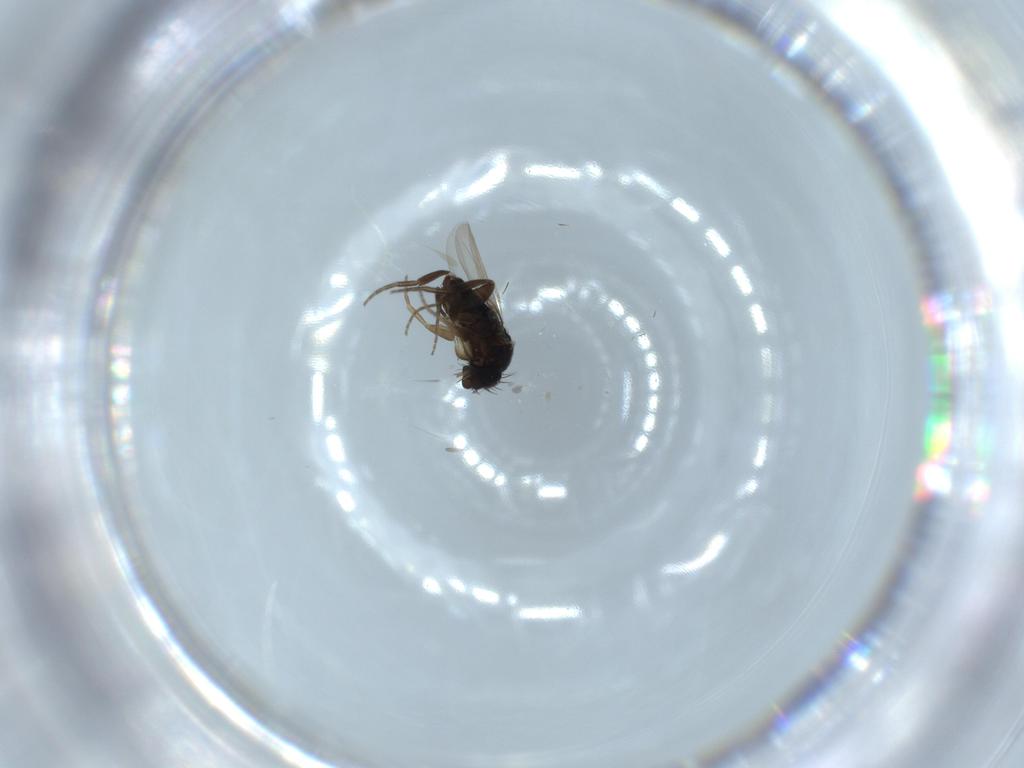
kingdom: Animalia
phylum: Arthropoda
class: Insecta
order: Diptera
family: Phoridae
